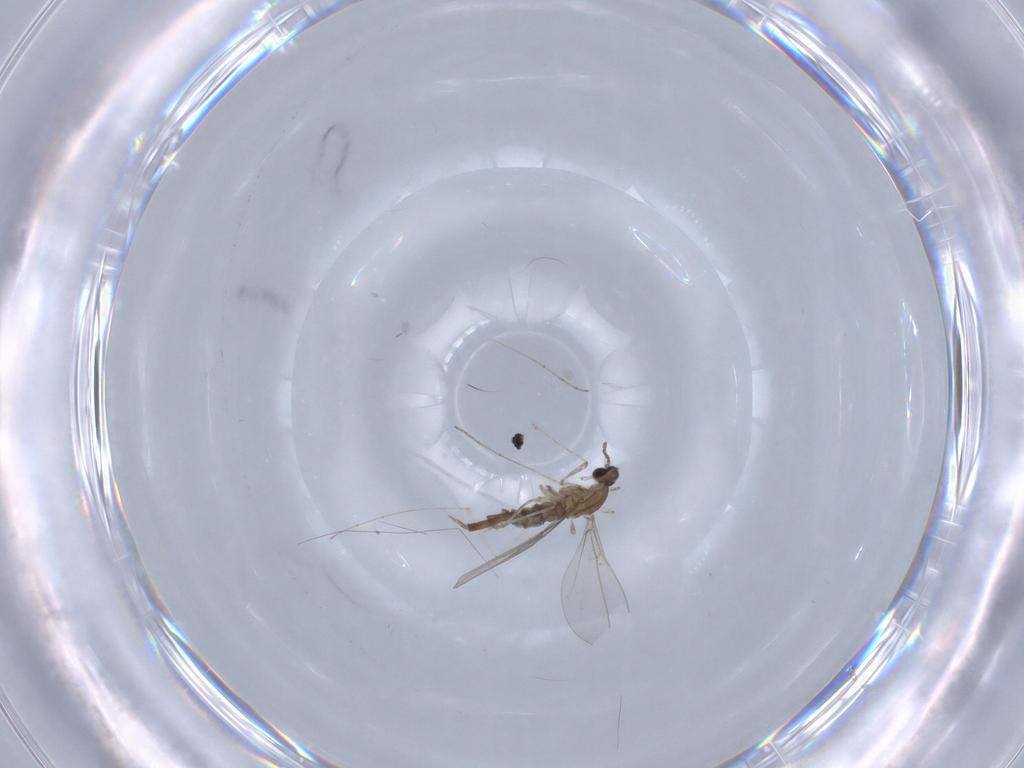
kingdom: Animalia
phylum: Arthropoda
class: Insecta
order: Diptera
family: Cecidomyiidae
